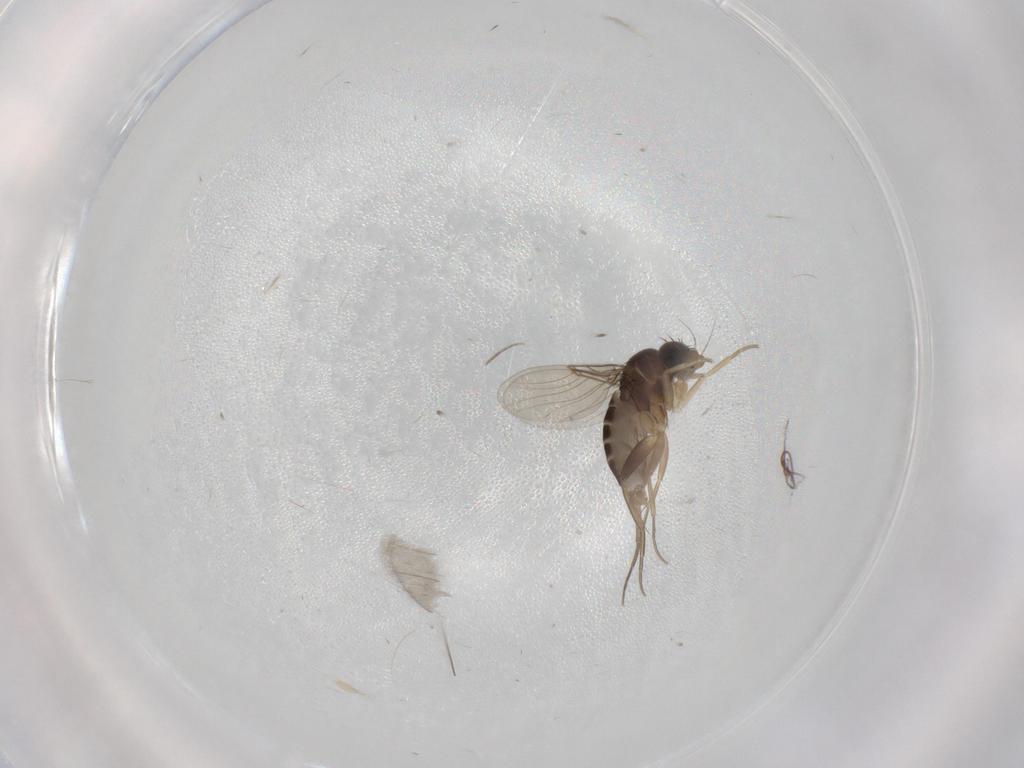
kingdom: Animalia
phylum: Arthropoda
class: Insecta
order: Diptera
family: Phoridae
